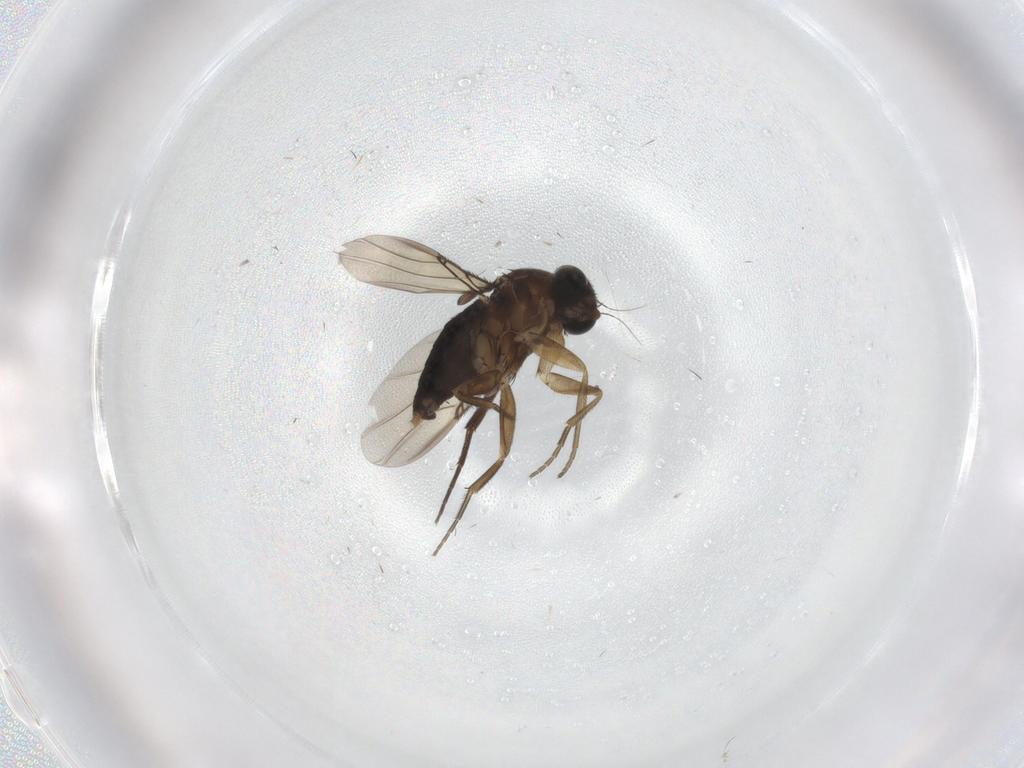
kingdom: Animalia
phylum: Arthropoda
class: Insecta
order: Diptera
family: Phoridae
